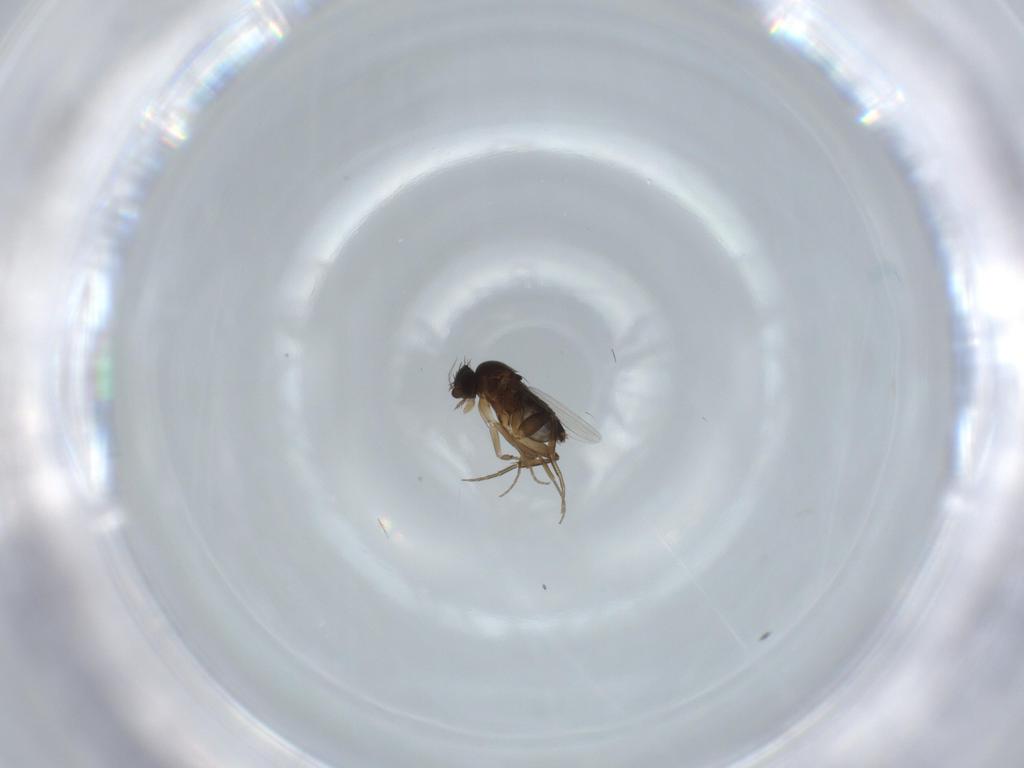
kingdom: Animalia
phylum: Arthropoda
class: Insecta
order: Diptera
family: Phoridae
